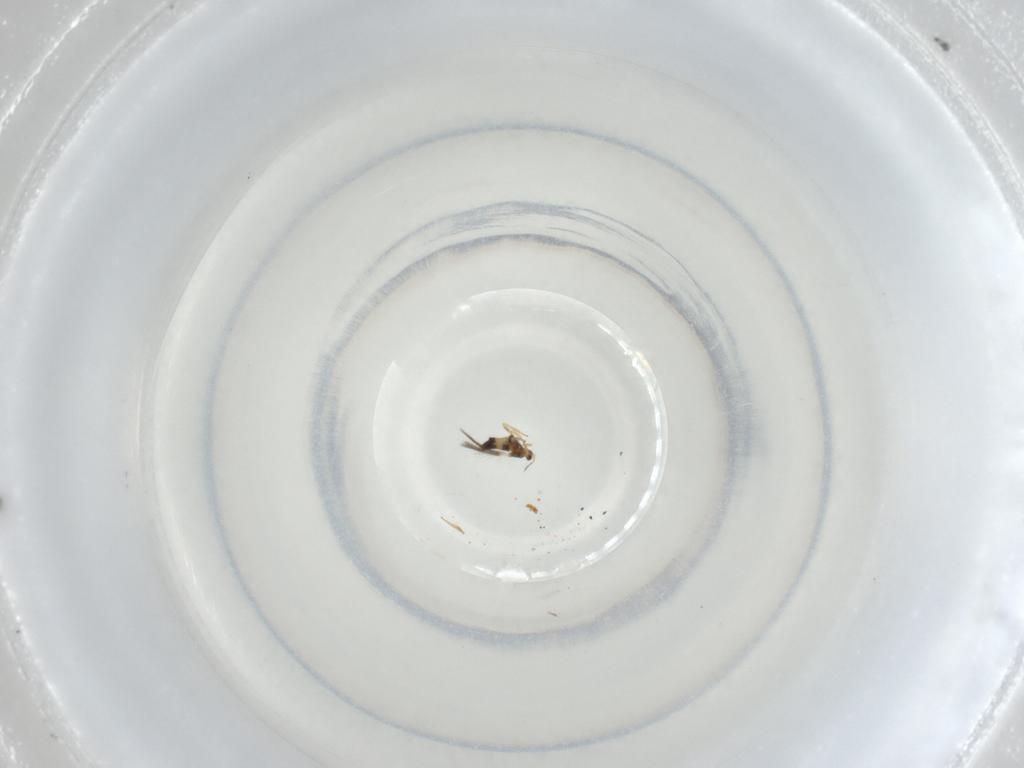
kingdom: Animalia
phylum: Arthropoda
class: Insecta
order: Thysanoptera
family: Thripidae
